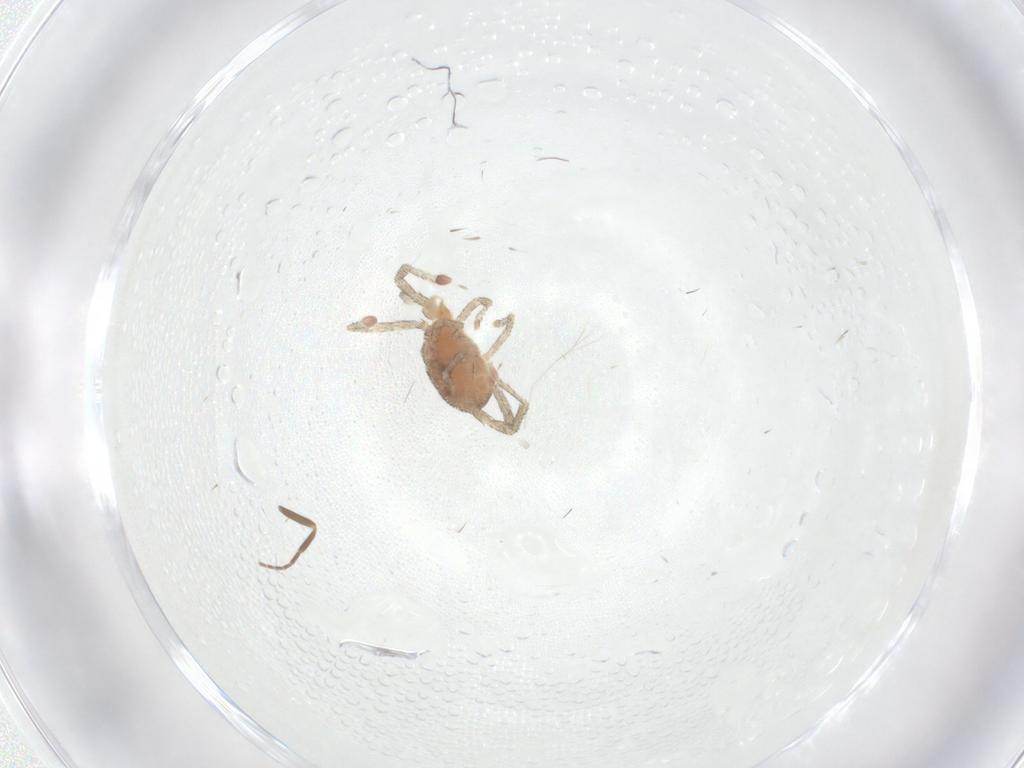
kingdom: Animalia
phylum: Arthropoda
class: Arachnida
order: Trombidiformes
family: Erythraeidae
